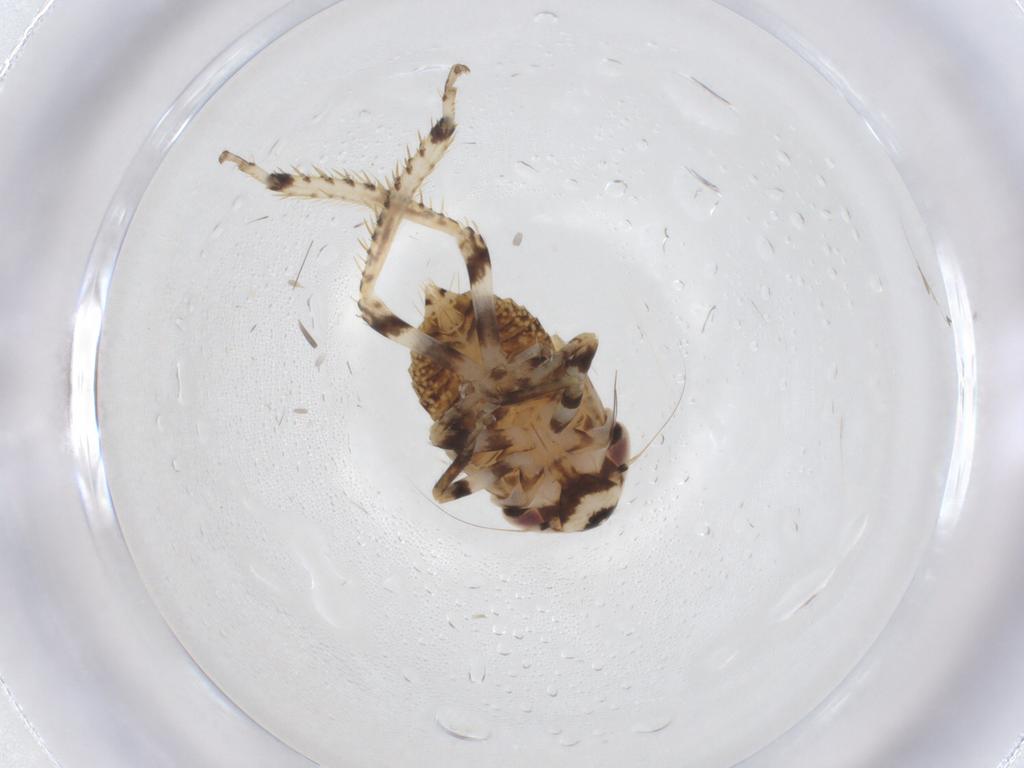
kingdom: Animalia
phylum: Arthropoda
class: Insecta
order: Hemiptera
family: Cicadellidae
